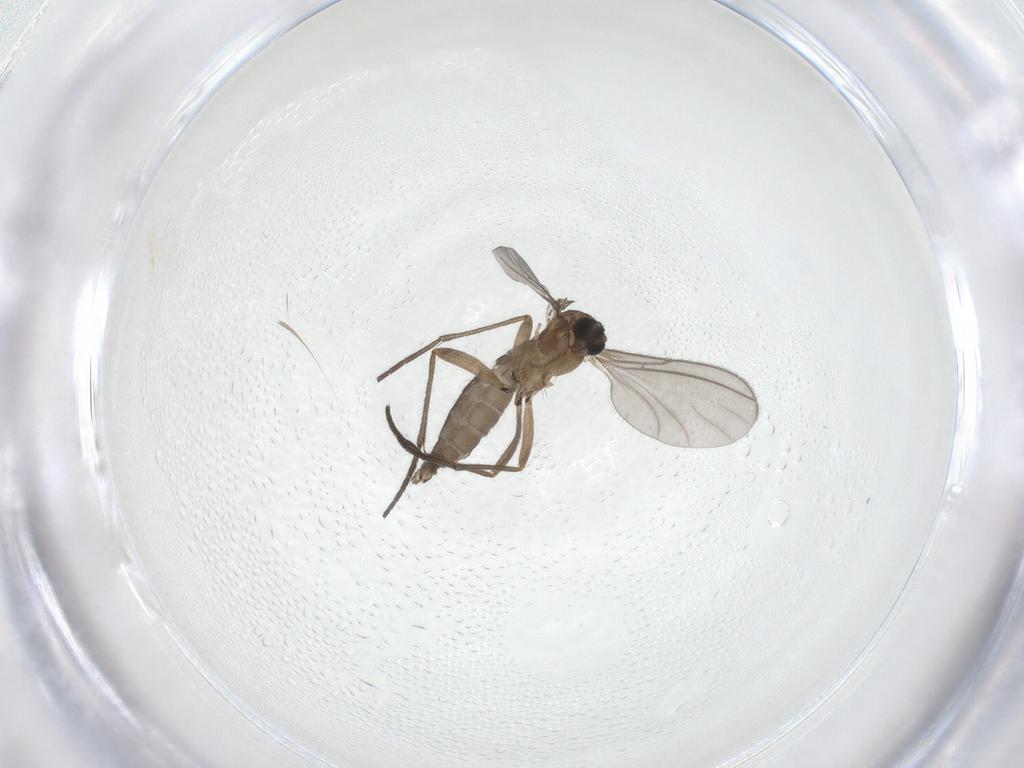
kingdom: Animalia
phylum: Arthropoda
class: Insecta
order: Diptera
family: Sciaridae
